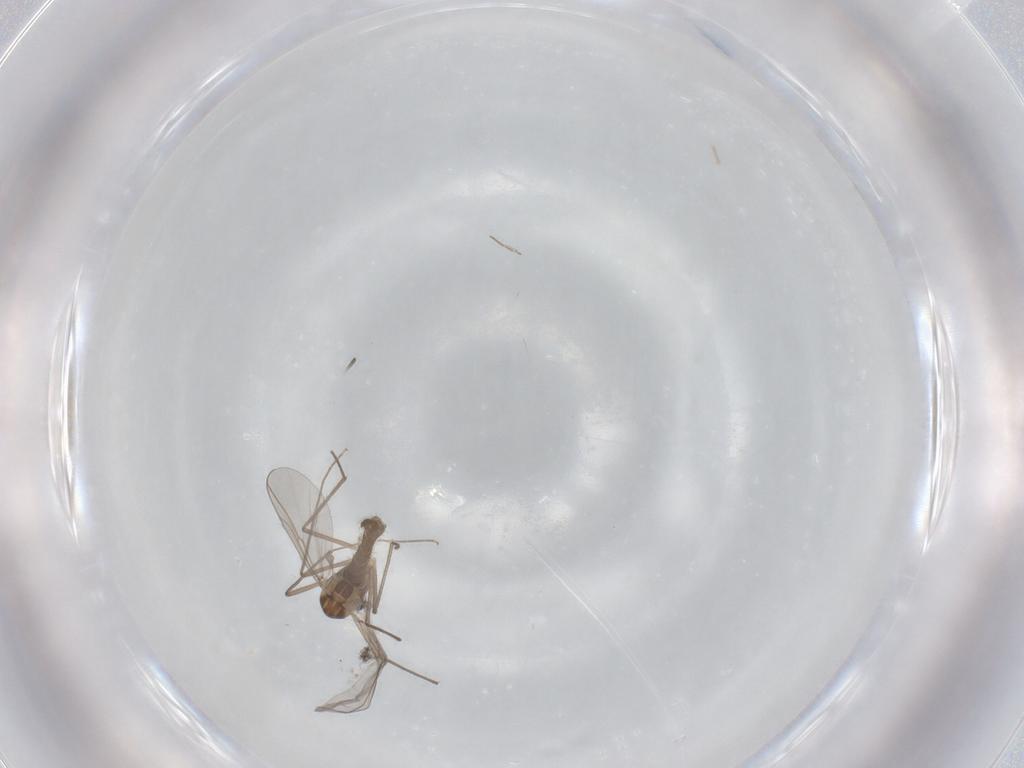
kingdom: Animalia
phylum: Arthropoda
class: Insecta
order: Diptera
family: Chironomidae
